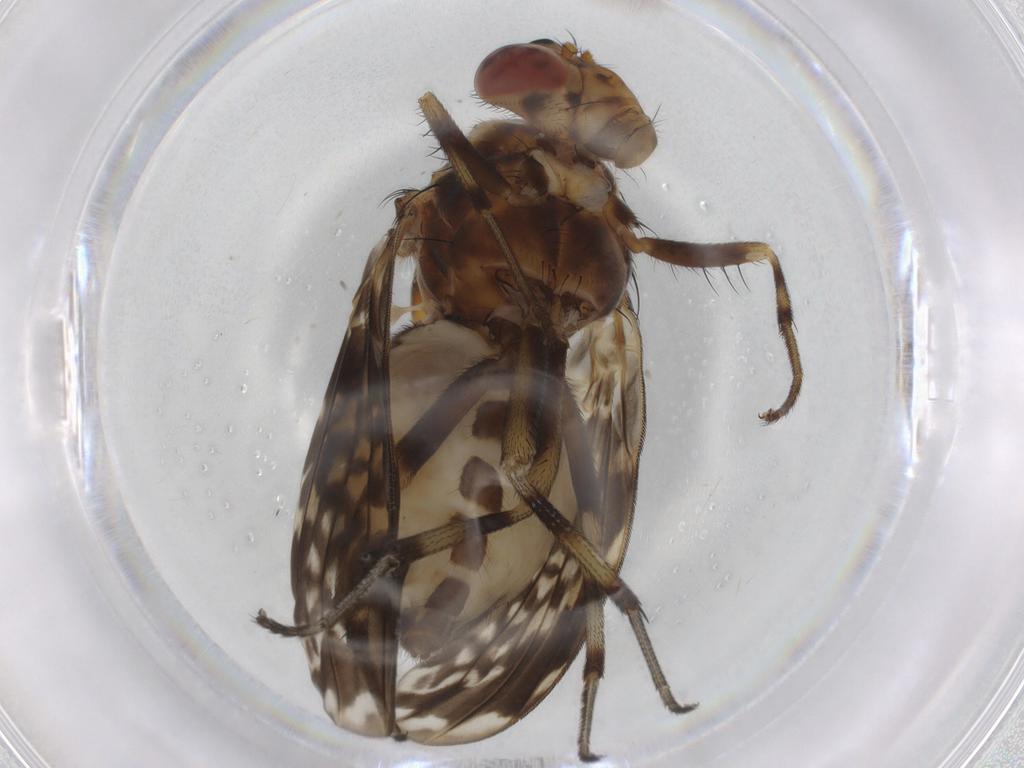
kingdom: Animalia
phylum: Arthropoda
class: Insecta
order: Diptera
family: Chironomidae
